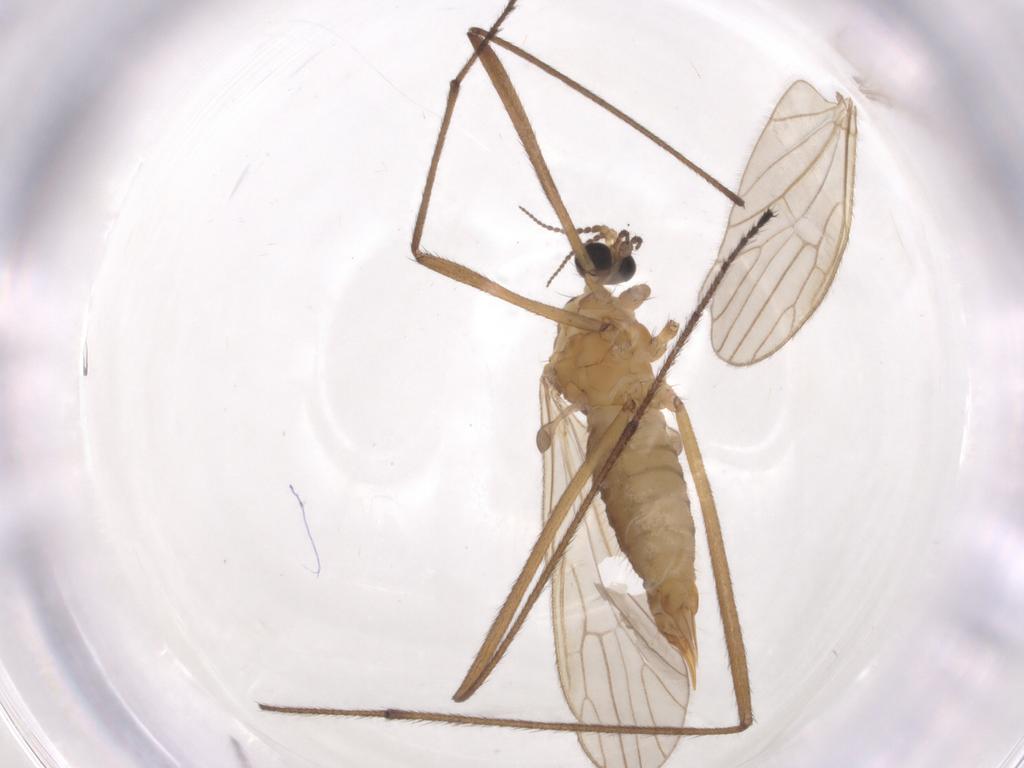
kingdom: Animalia
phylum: Arthropoda
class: Insecta
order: Diptera
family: Limoniidae
